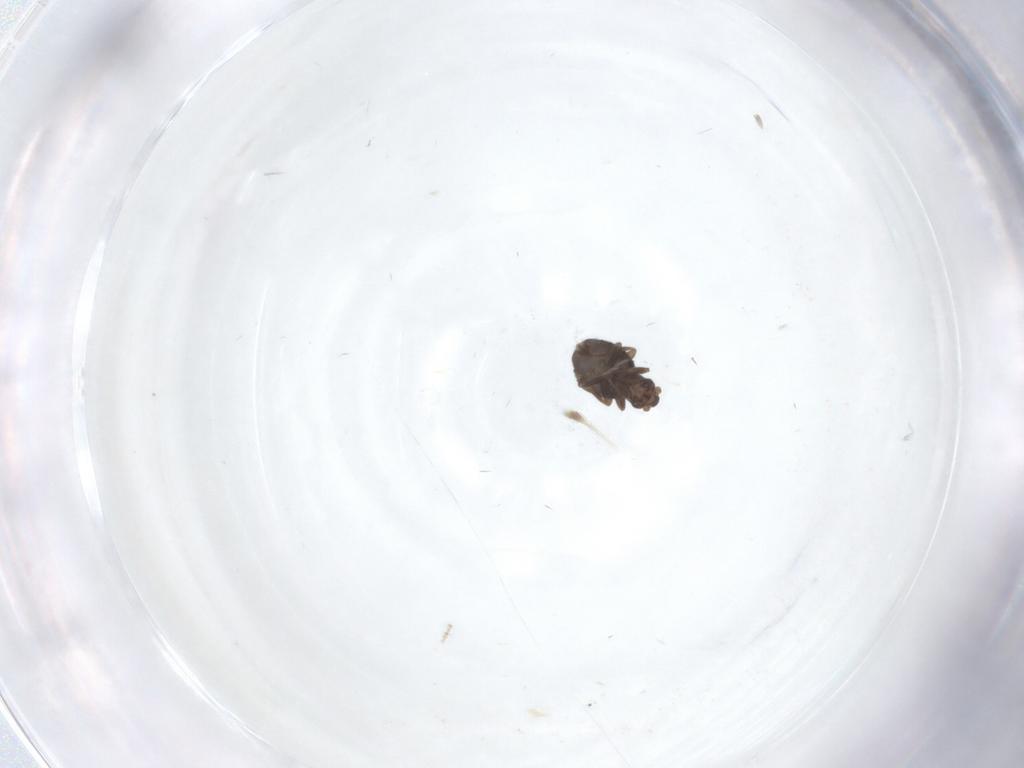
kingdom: Animalia
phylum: Arthropoda
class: Insecta
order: Diptera
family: Phoridae
